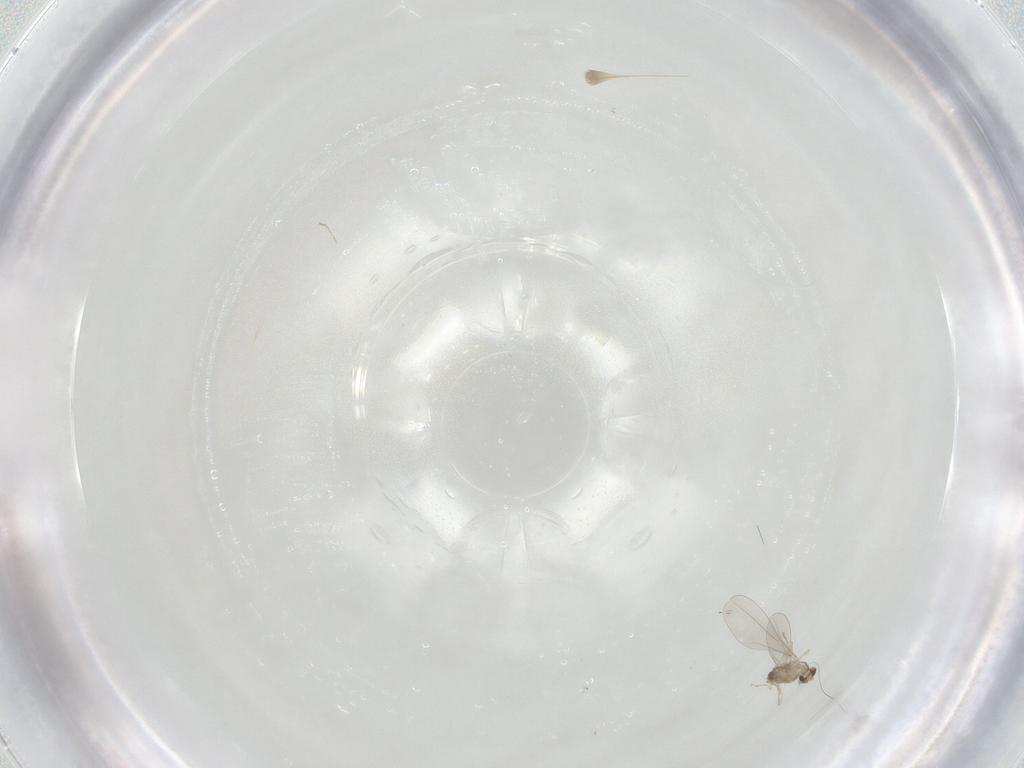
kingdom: Animalia
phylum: Arthropoda
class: Insecta
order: Diptera
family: Cecidomyiidae
